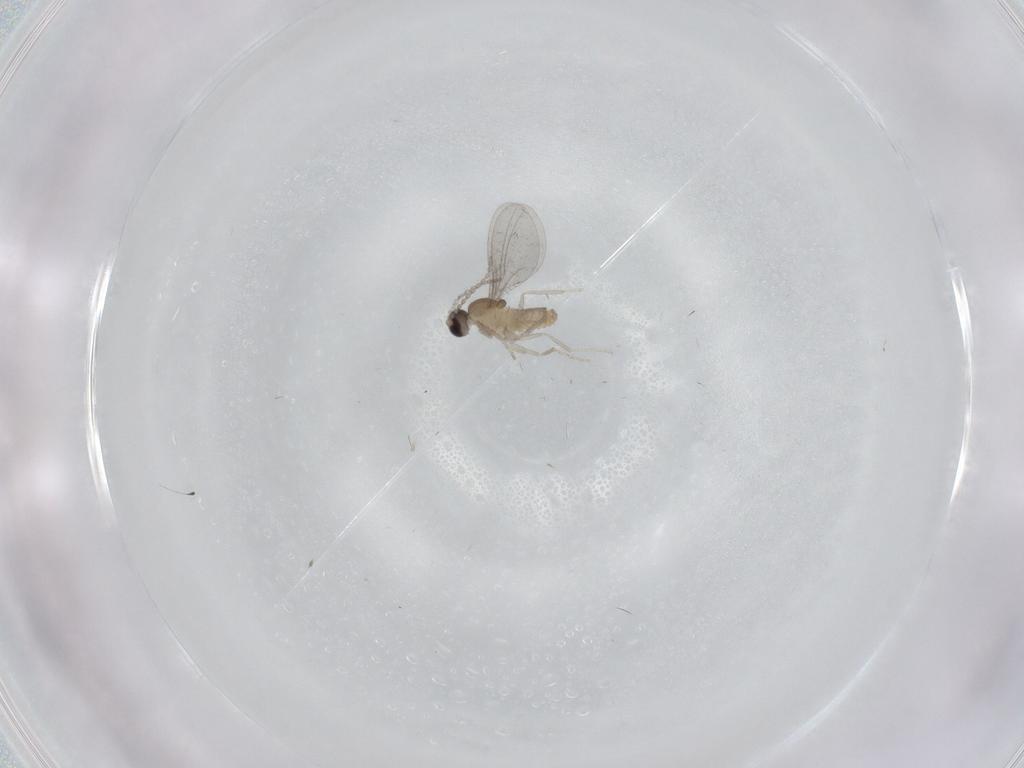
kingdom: Animalia
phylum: Arthropoda
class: Insecta
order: Diptera
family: Cecidomyiidae
